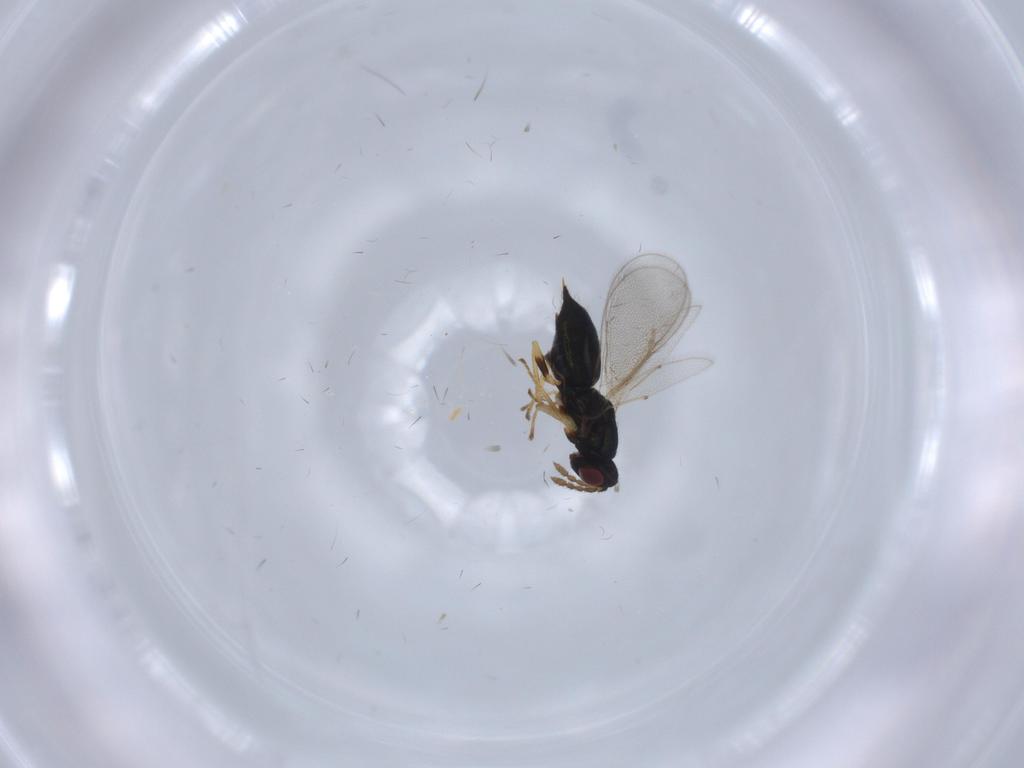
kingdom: Animalia
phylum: Arthropoda
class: Insecta
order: Hymenoptera
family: Eulophidae
